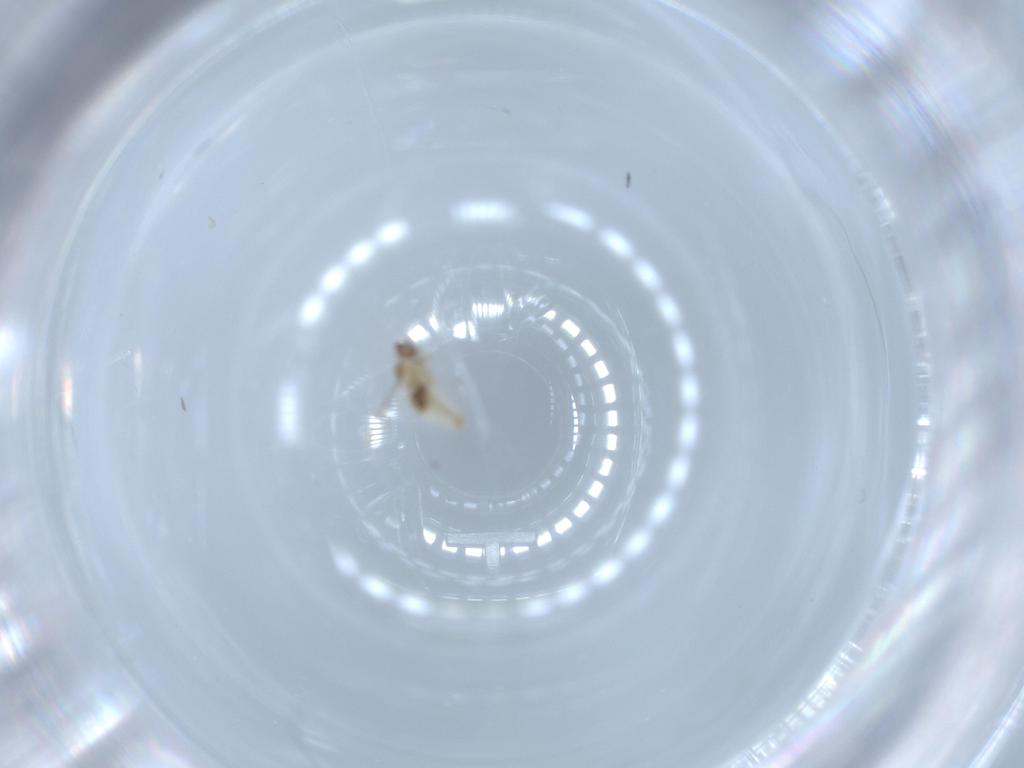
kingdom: Animalia
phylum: Arthropoda
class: Insecta
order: Diptera
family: Cecidomyiidae
